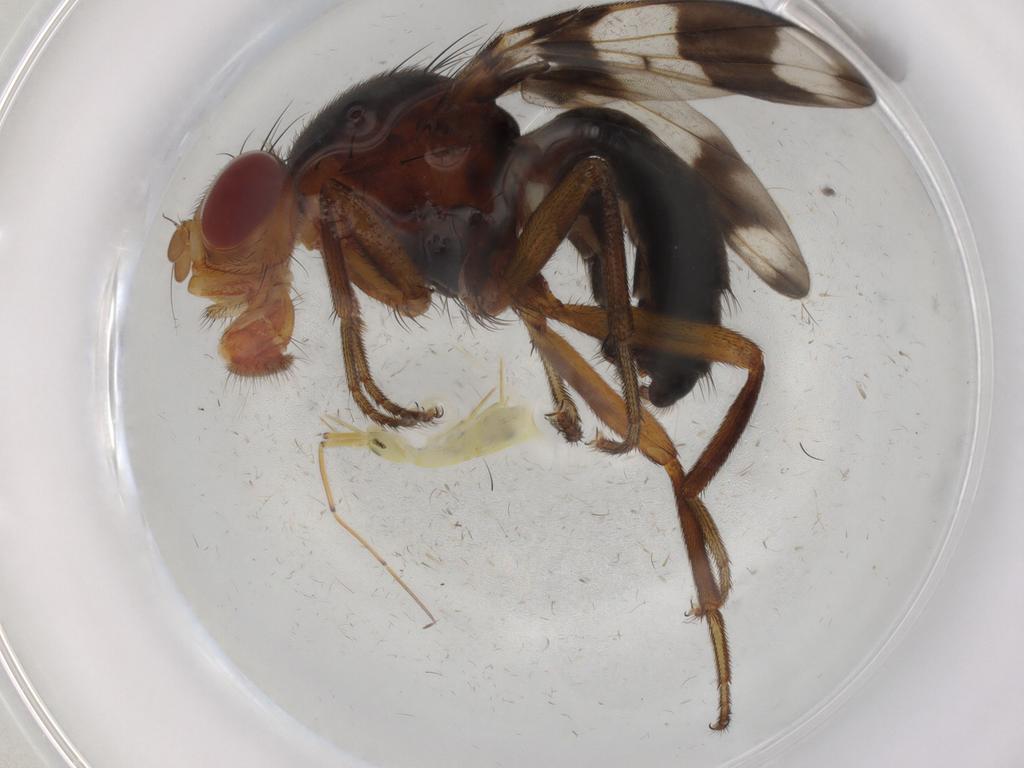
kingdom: Animalia
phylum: Arthropoda
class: Insecta
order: Diptera
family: Richardiidae
